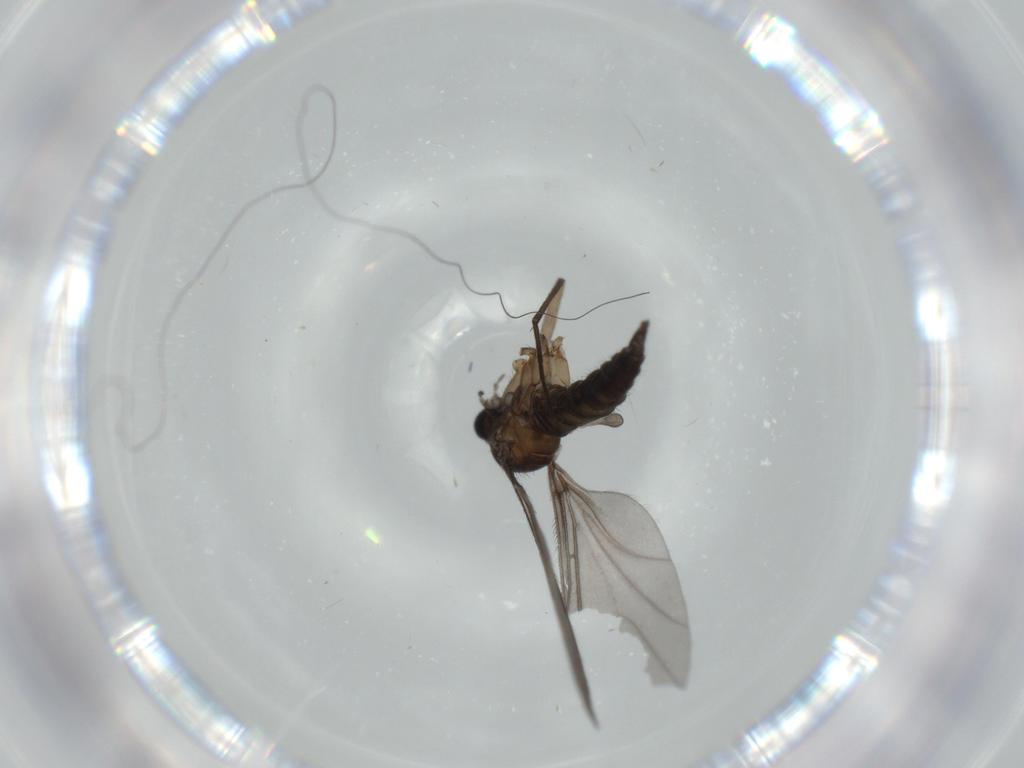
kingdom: Animalia
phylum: Arthropoda
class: Insecta
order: Diptera
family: Sciaridae
